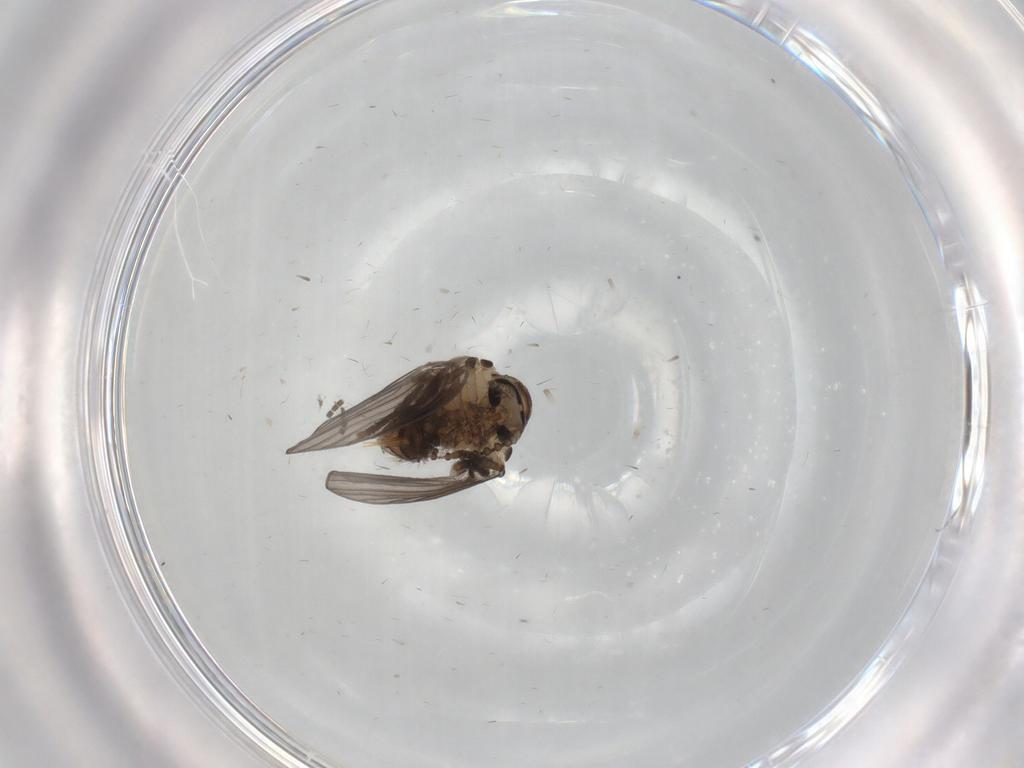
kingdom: Animalia
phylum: Arthropoda
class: Insecta
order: Diptera
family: Psychodidae
